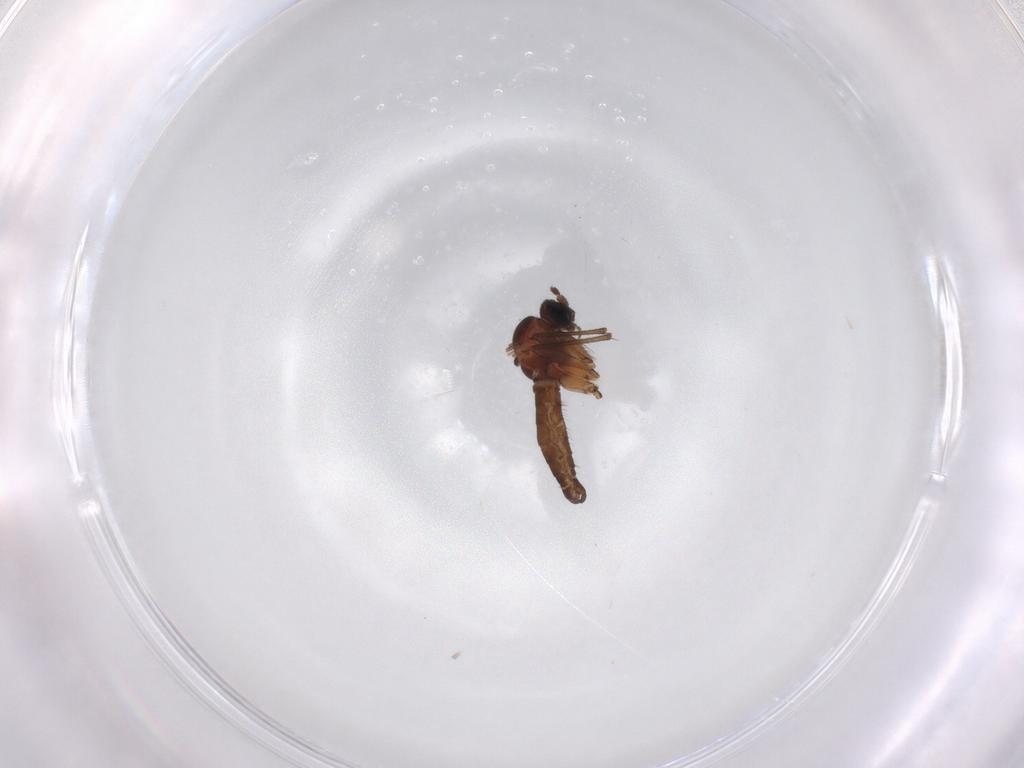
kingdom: Animalia
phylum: Arthropoda
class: Insecta
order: Diptera
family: Sciaridae
